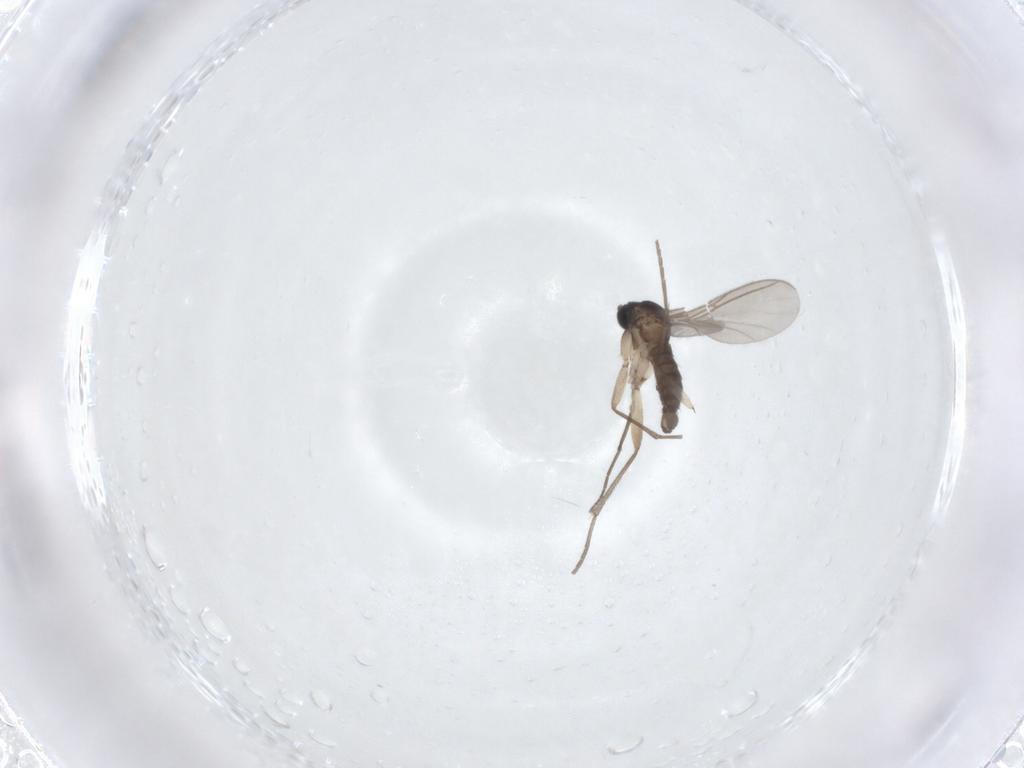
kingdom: Animalia
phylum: Arthropoda
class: Insecta
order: Diptera
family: Sciaridae
